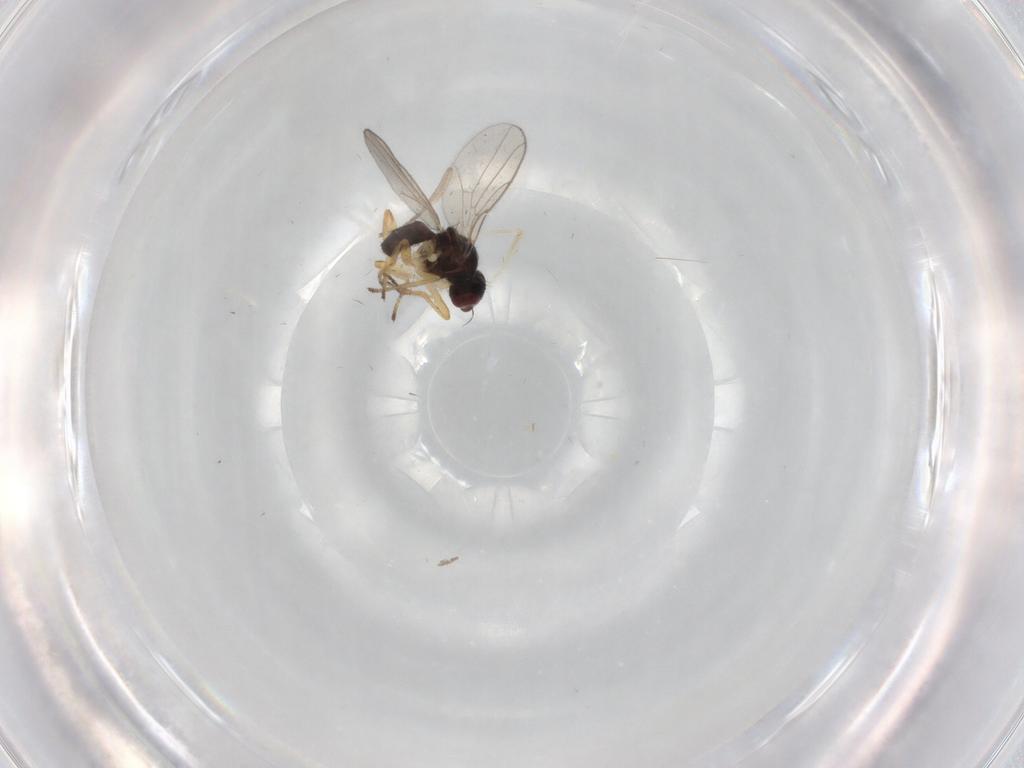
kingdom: Animalia
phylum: Arthropoda
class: Insecta
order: Diptera
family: Chloropidae
